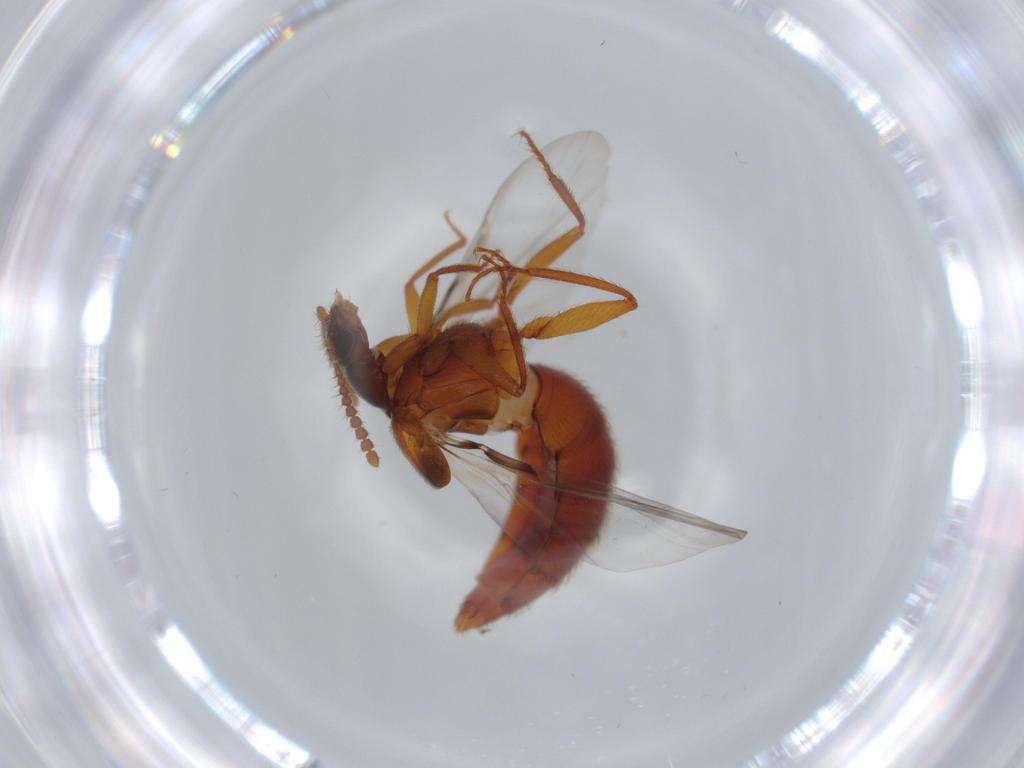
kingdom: Animalia
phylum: Arthropoda
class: Insecta
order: Coleoptera
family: Staphylinidae
